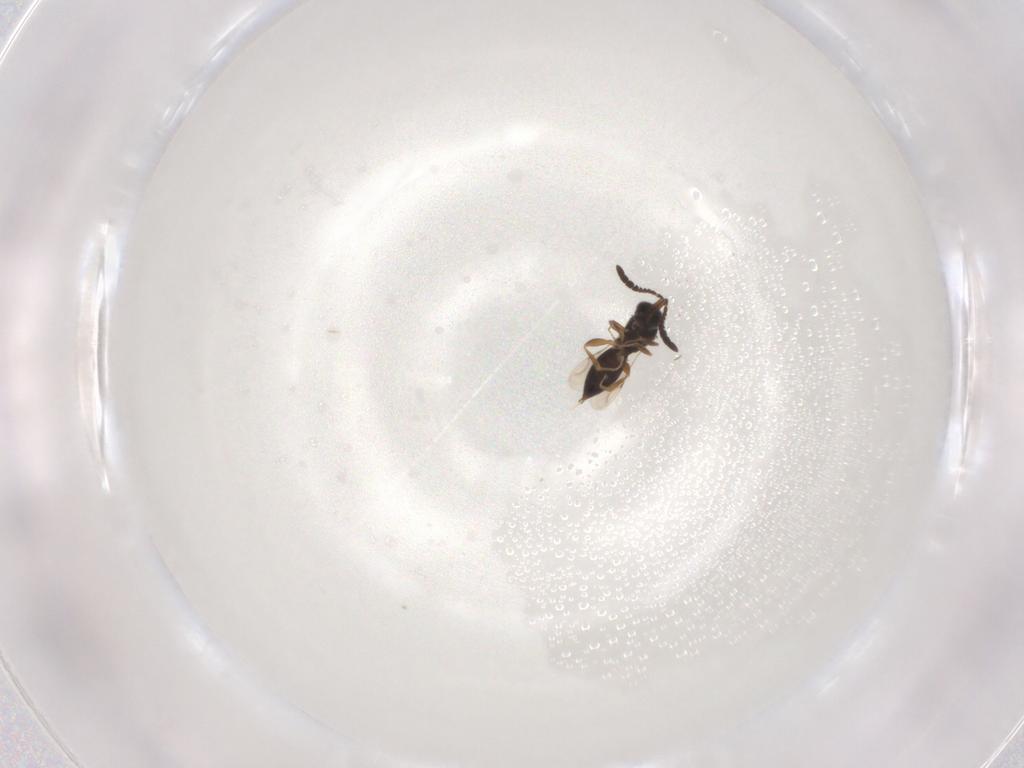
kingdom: Animalia
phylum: Arthropoda
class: Insecta
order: Hymenoptera
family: Ceraphronidae
